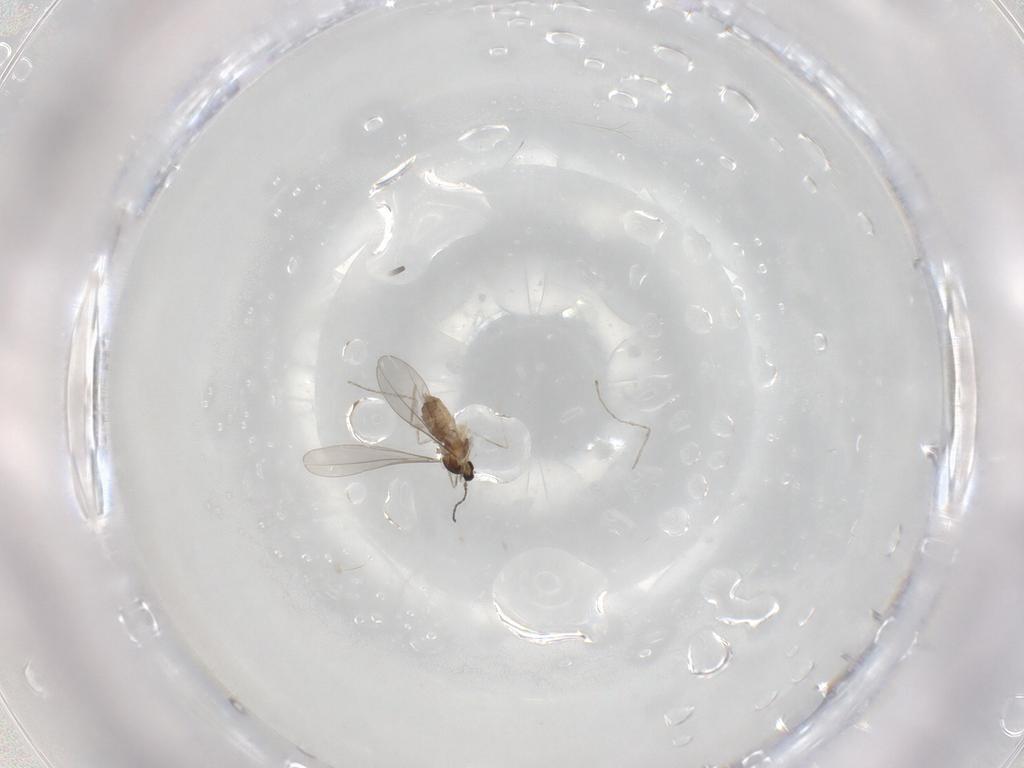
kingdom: Animalia
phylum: Arthropoda
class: Insecta
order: Diptera
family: Cecidomyiidae
